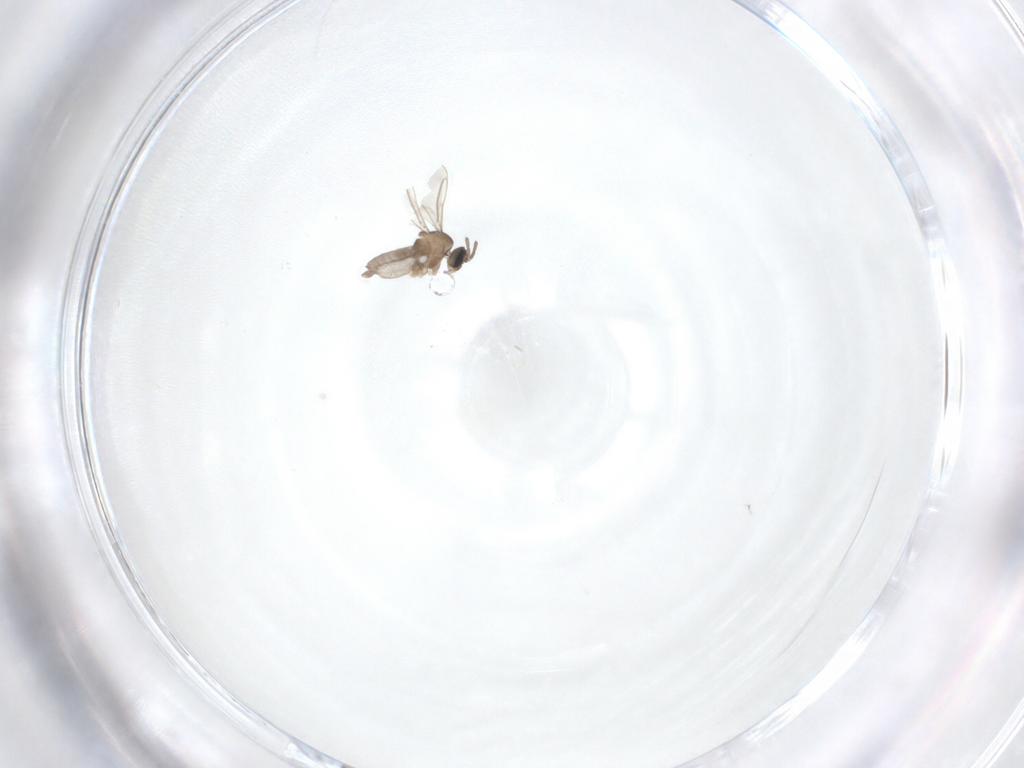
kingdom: Animalia
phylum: Arthropoda
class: Insecta
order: Diptera
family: Cecidomyiidae
